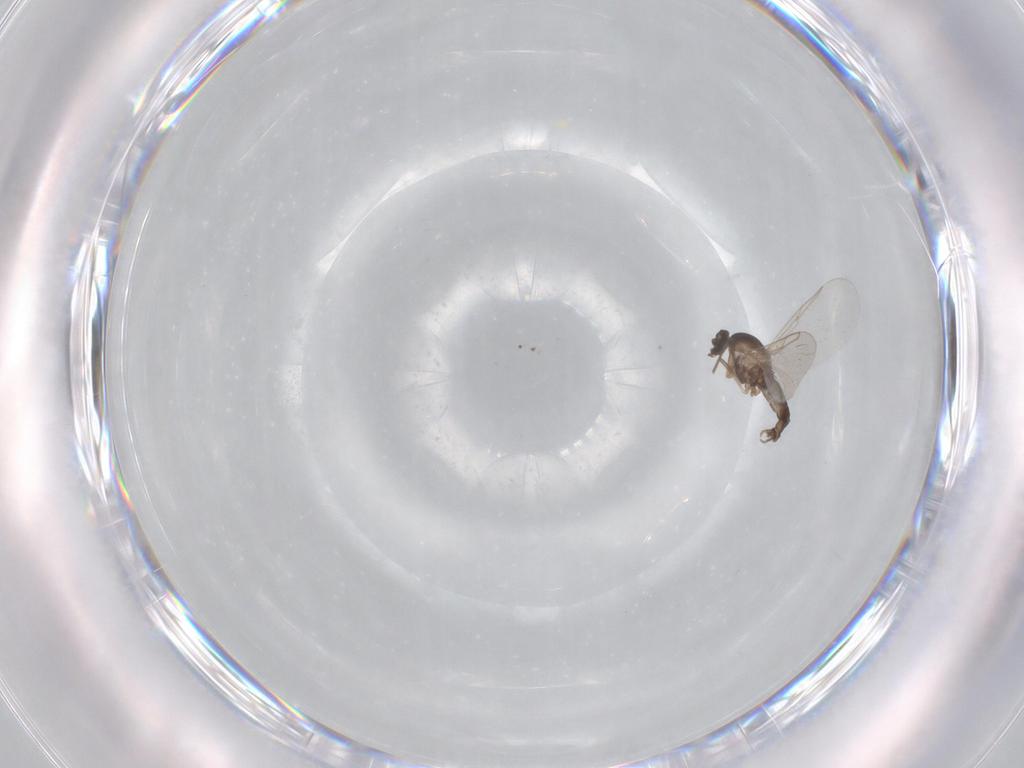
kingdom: Animalia
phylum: Arthropoda
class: Insecta
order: Diptera
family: Cecidomyiidae
